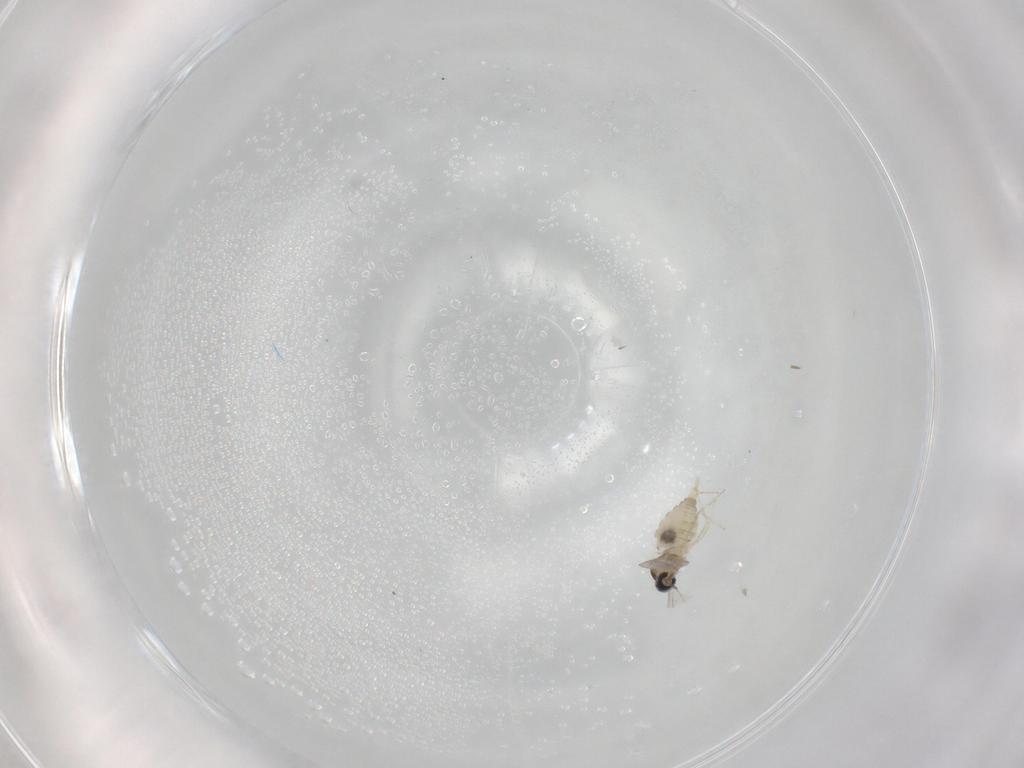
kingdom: Animalia
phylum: Arthropoda
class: Insecta
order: Diptera
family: Cecidomyiidae
